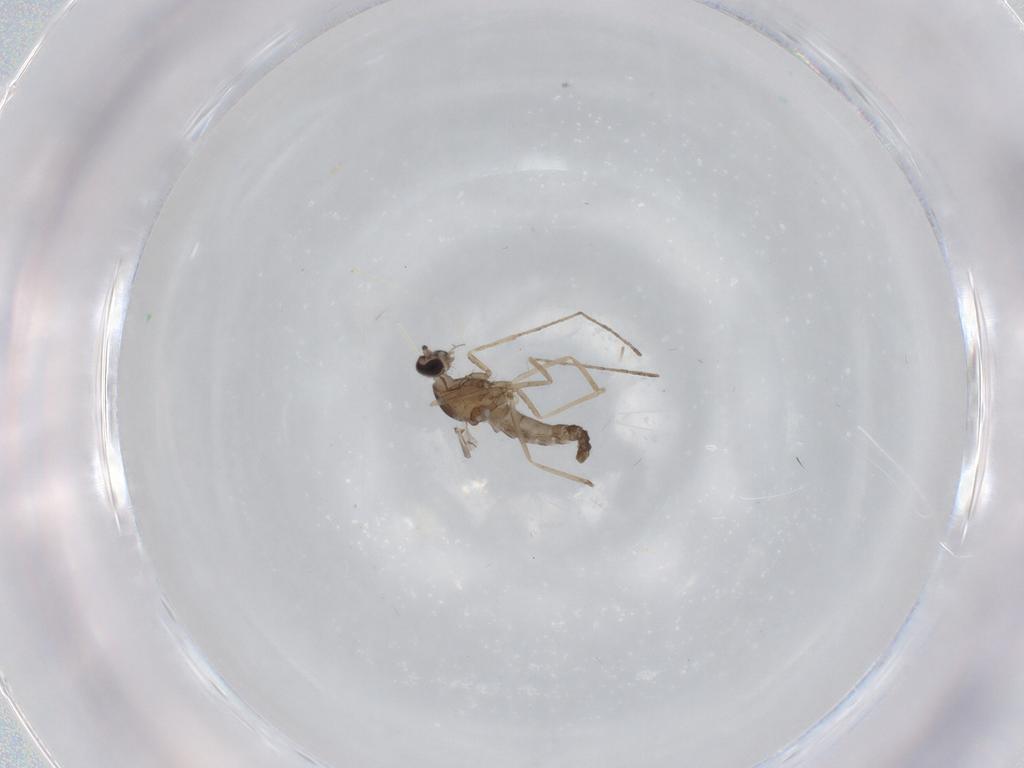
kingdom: Animalia
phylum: Arthropoda
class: Insecta
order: Diptera
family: Cecidomyiidae
